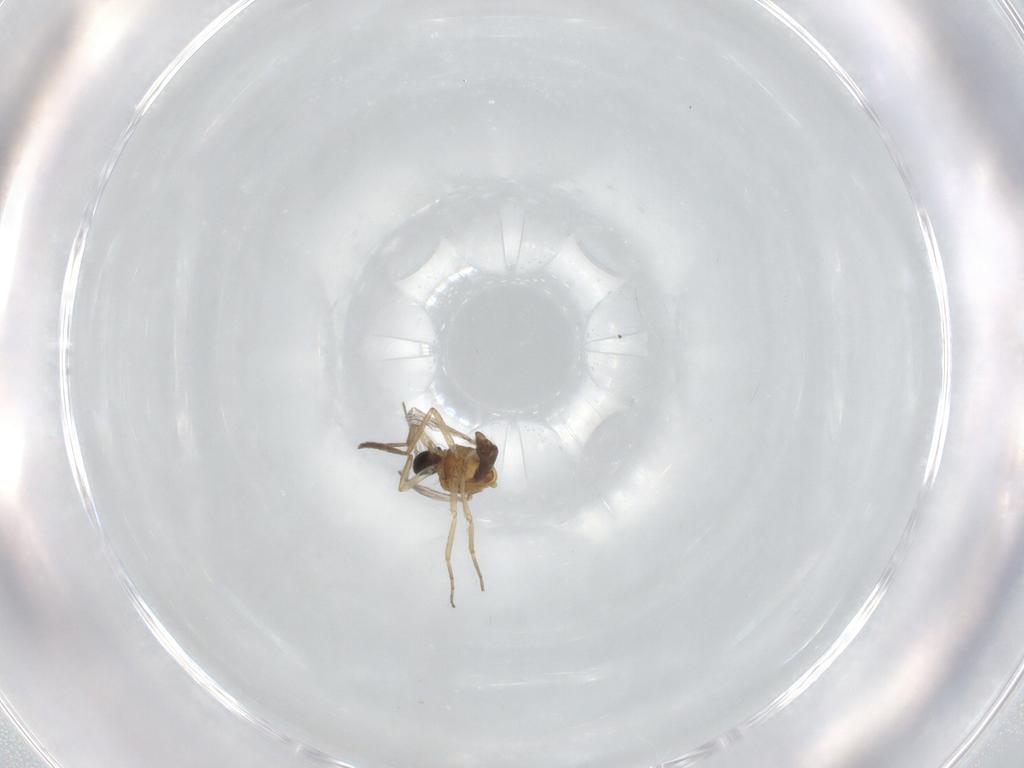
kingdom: Animalia
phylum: Arthropoda
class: Insecta
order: Diptera
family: Ceratopogonidae
